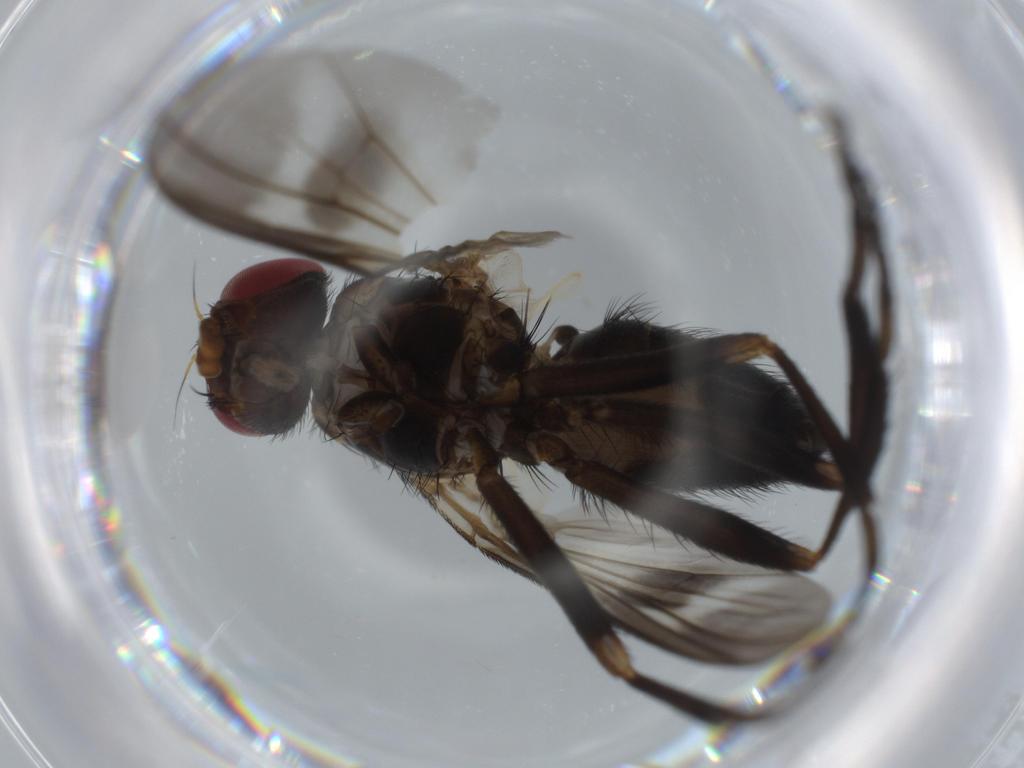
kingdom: Animalia
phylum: Arthropoda
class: Insecta
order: Diptera
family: Calliphoridae
